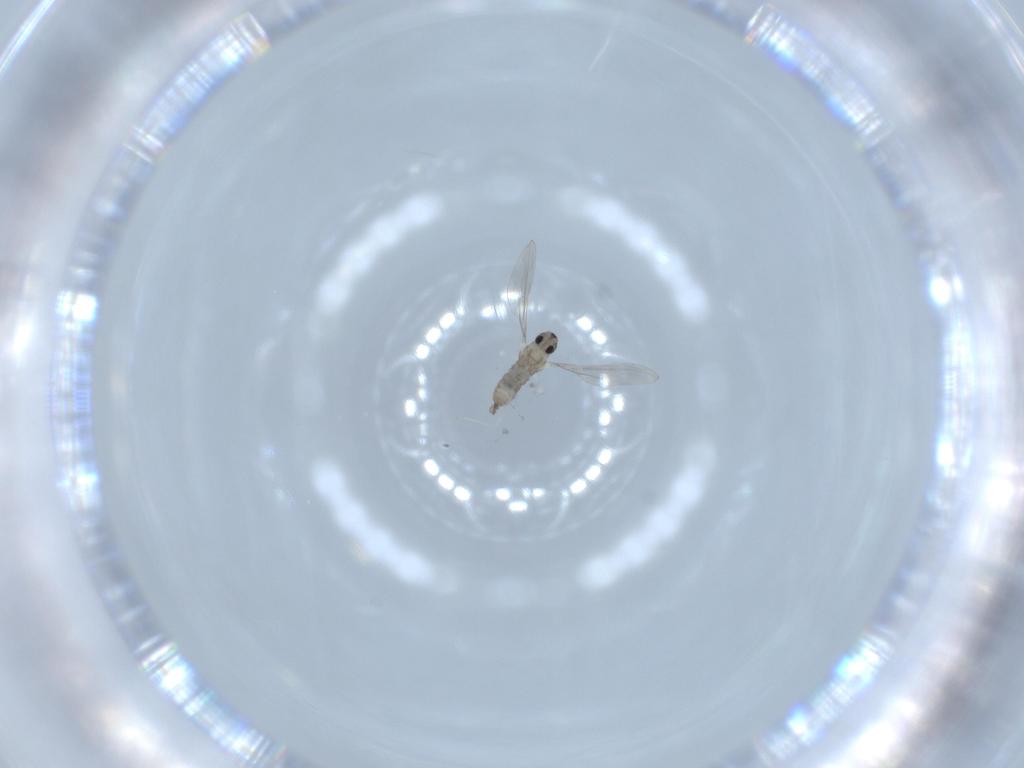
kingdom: Animalia
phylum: Arthropoda
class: Insecta
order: Diptera
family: Cecidomyiidae
